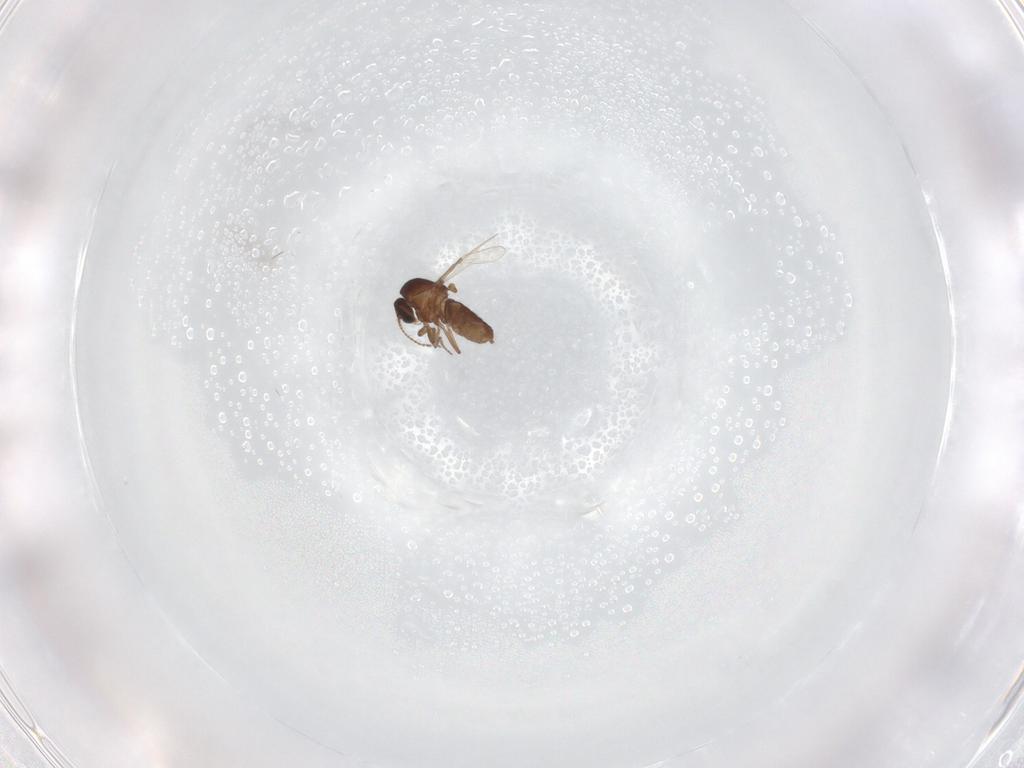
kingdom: Animalia
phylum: Arthropoda
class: Insecta
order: Diptera
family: Ceratopogonidae
